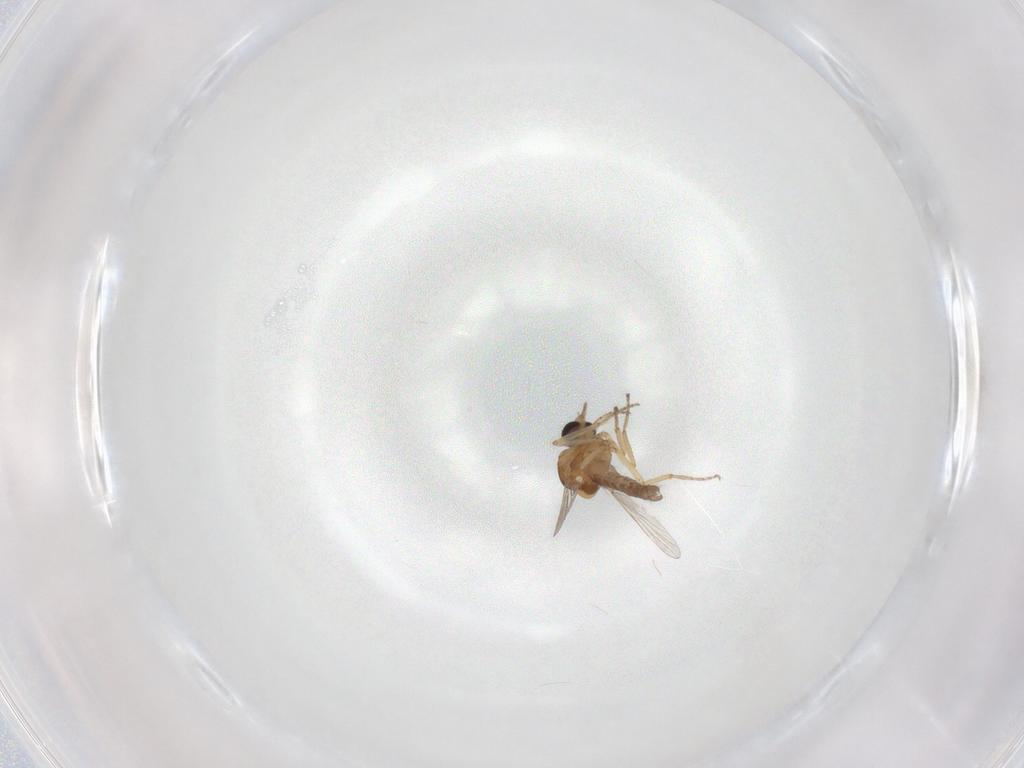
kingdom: Animalia
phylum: Arthropoda
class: Insecta
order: Diptera
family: Ceratopogonidae
